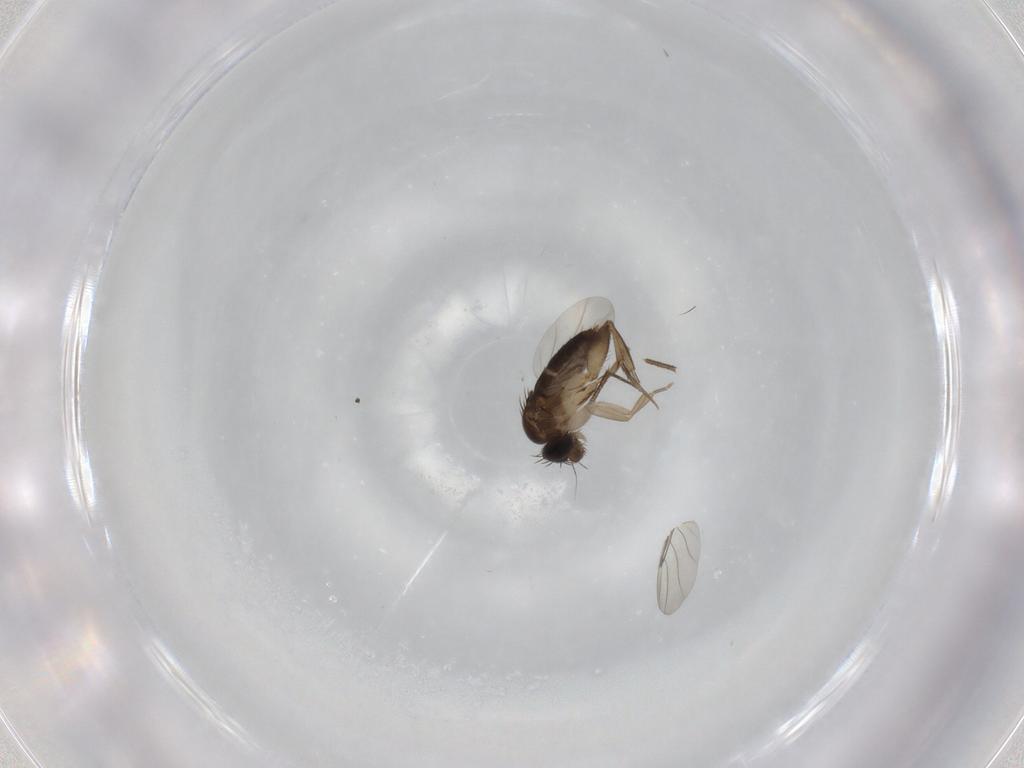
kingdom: Animalia
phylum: Arthropoda
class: Insecta
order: Diptera
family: Phoridae
